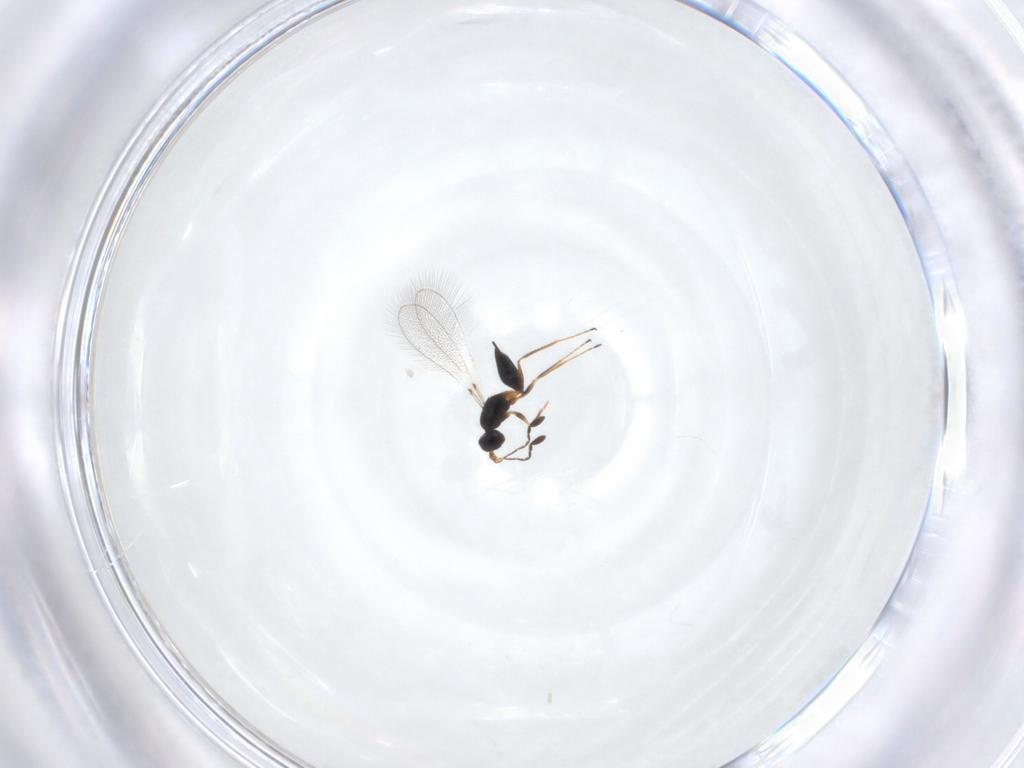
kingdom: Animalia
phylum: Arthropoda
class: Insecta
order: Hymenoptera
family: Mymaridae
